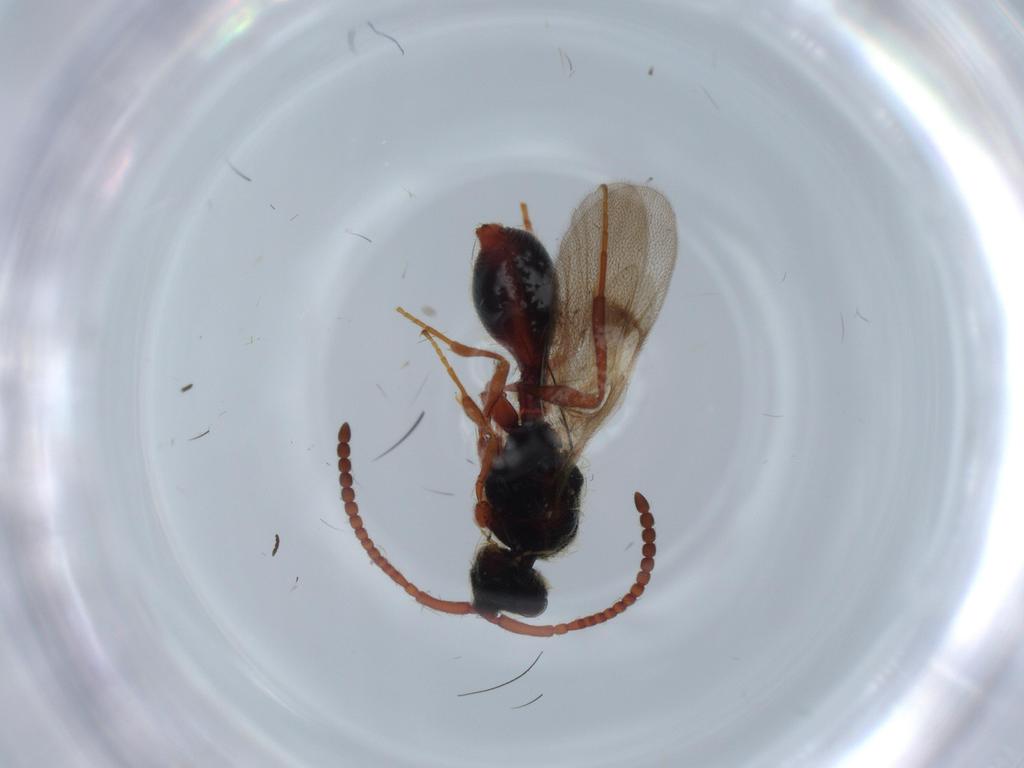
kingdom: Animalia
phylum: Arthropoda
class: Insecta
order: Hymenoptera
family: Diapriidae
